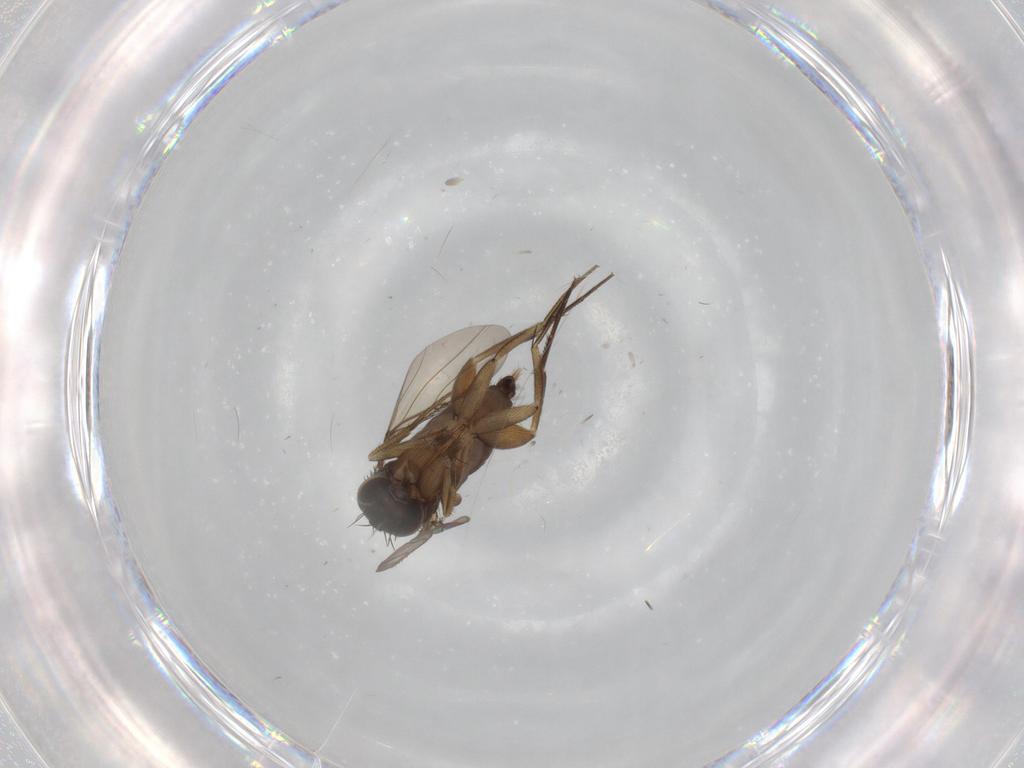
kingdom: Animalia
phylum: Arthropoda
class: Insecta
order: Diptera
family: Phoridae
